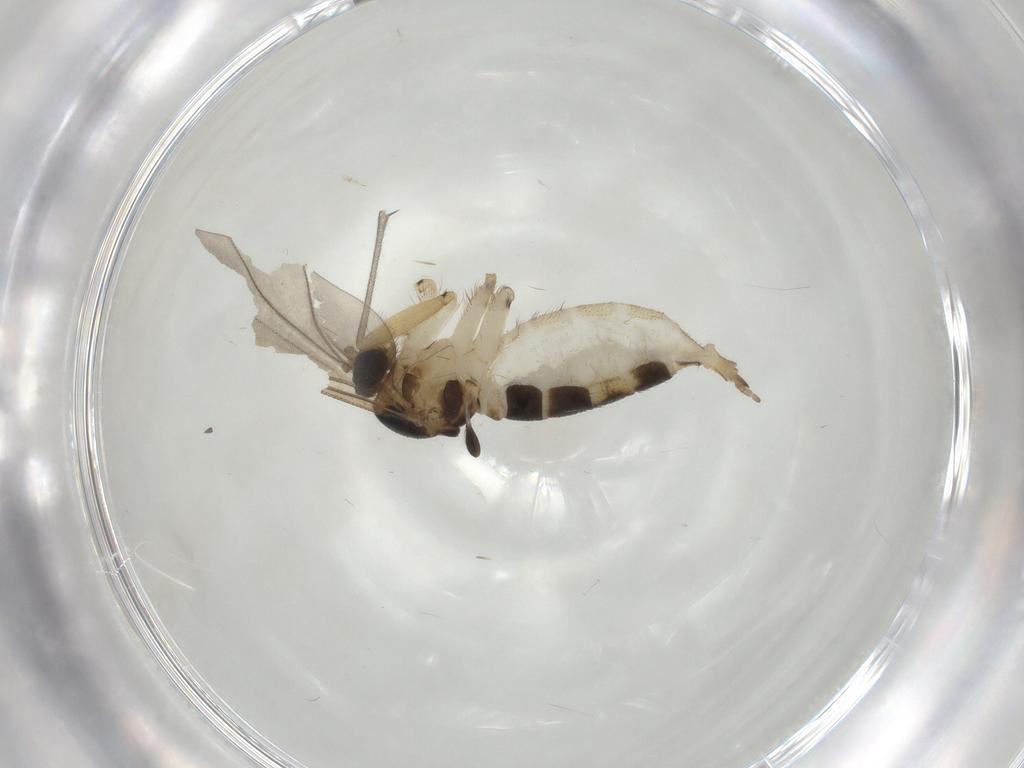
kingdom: Animalia
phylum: Arthropoda
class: Insecta
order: Diptera
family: Sciaridae
